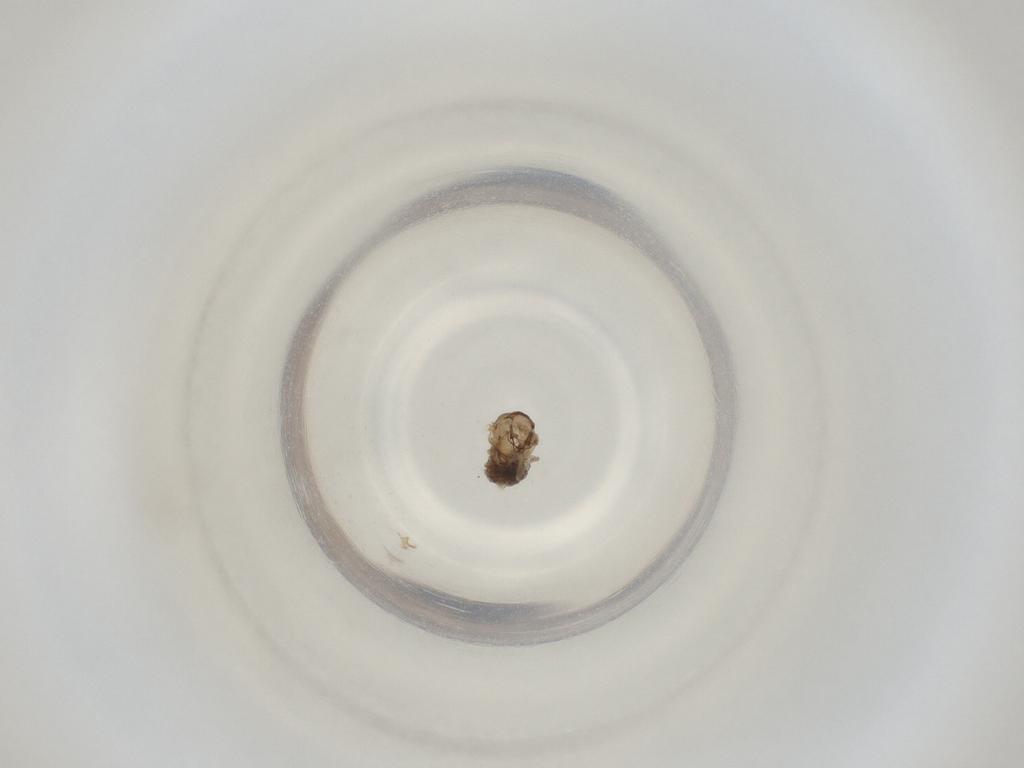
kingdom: Animalia
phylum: Arthropoda
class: Insecta
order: Diptera
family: Cecidomyiidae
